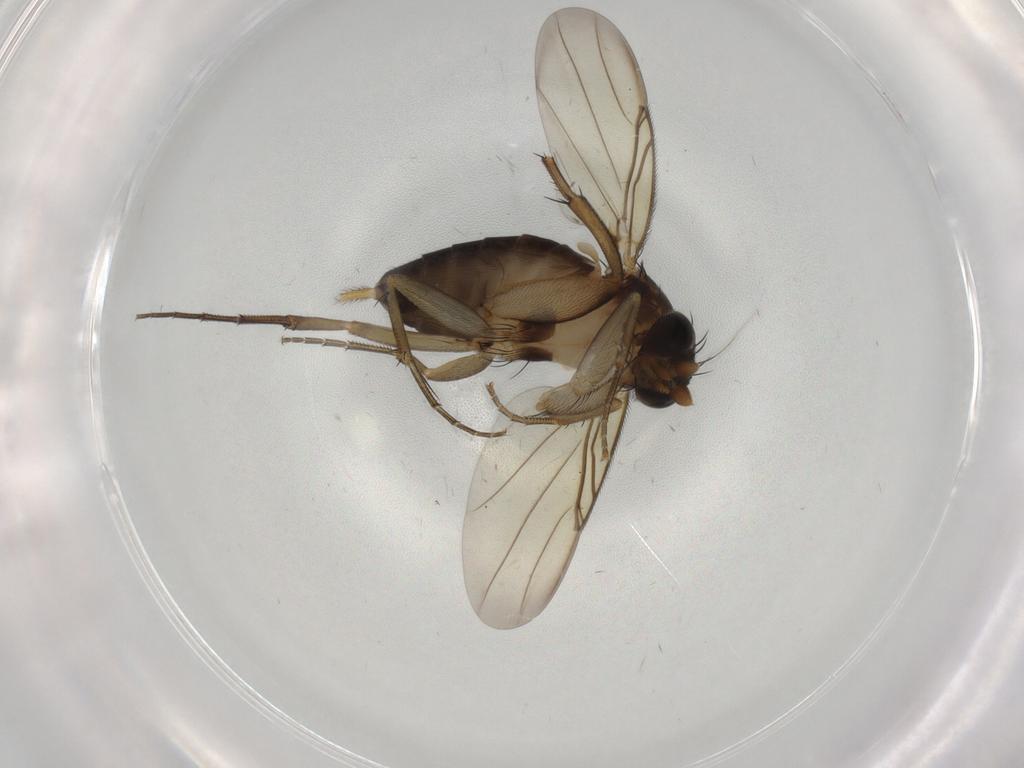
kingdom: Animalia
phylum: Arthropoda
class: Insecta
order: Diptera
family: Phoridae
